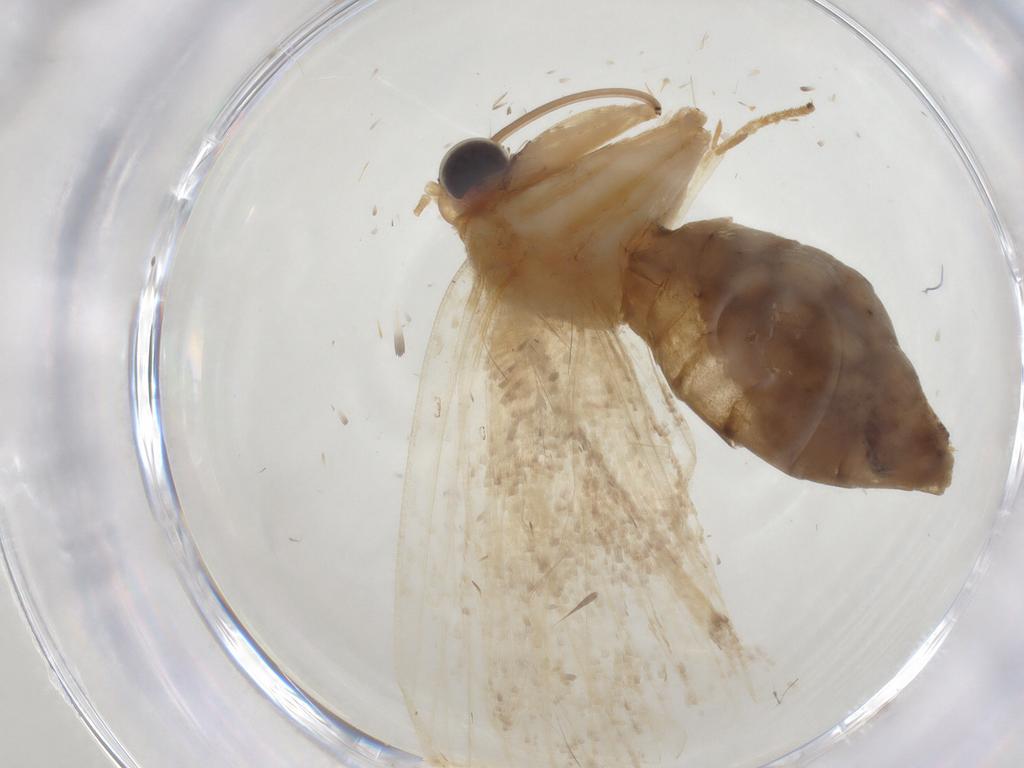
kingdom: Animalia
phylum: Arthropoda
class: Insecta
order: Lepidoptera
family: Geometridae
